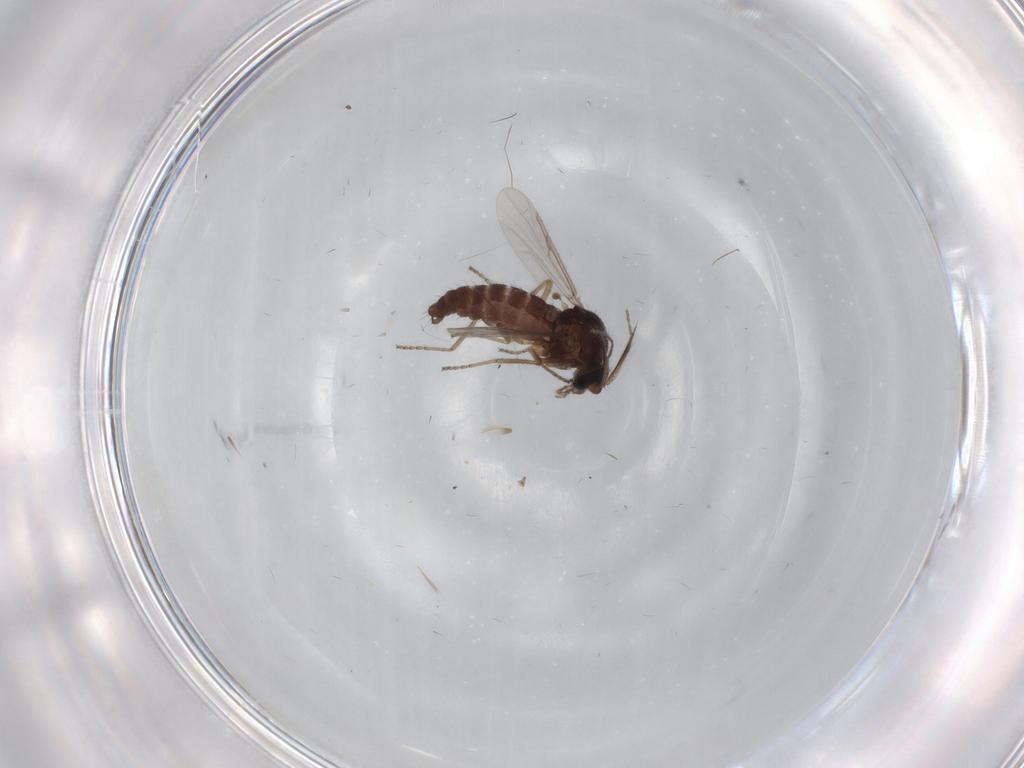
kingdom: Animalia
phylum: Arthropoda
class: Insecta
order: Diptera
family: Ceratopogonidae
